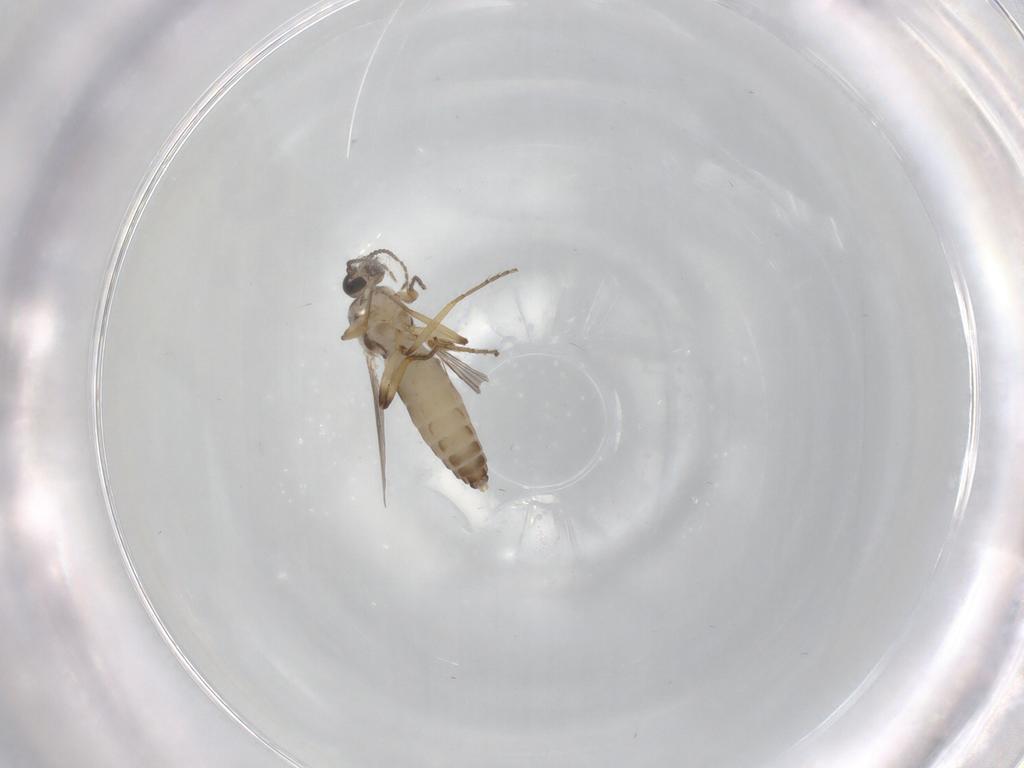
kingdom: Animalia
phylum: Arthropoda
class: Insecta
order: Diptera
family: Ceratopogonidae
